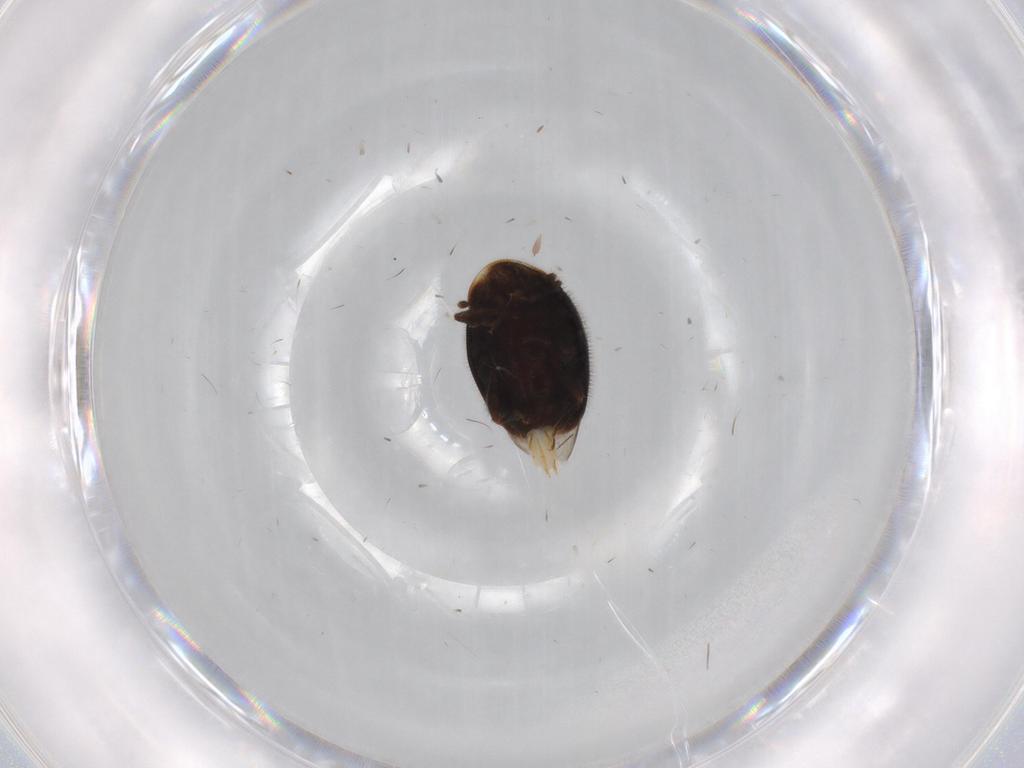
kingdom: Animalia
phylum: Arthropoda
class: Insecta
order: Coleoptera
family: Corylophidae
